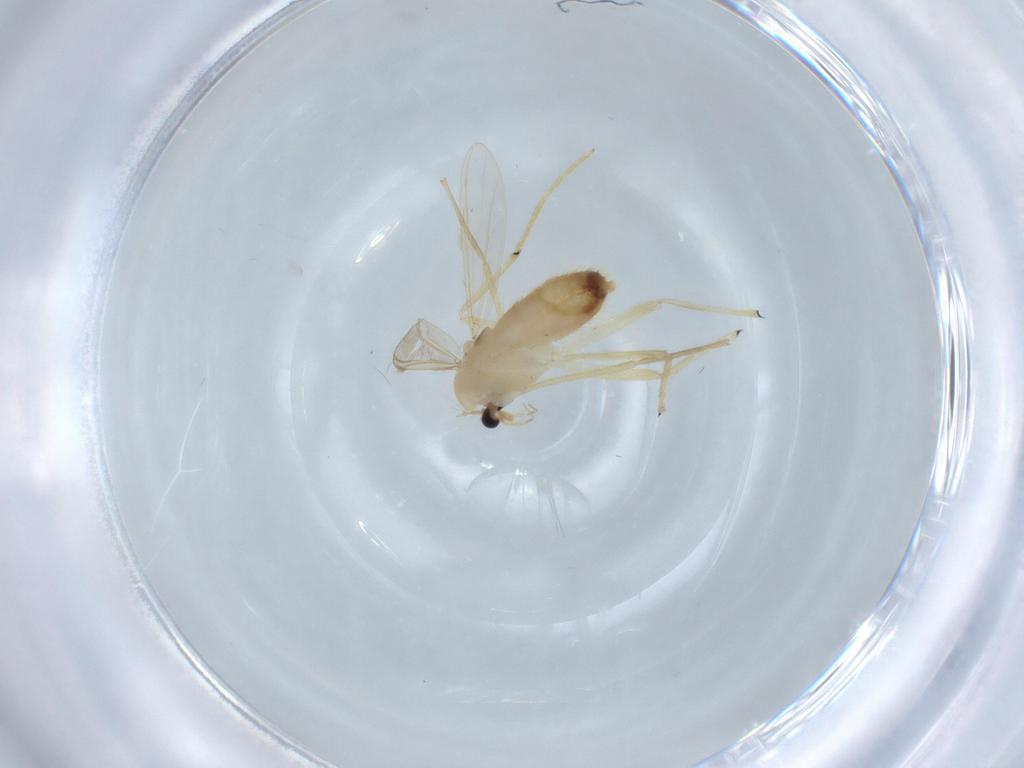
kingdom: Animalia
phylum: Arthropoda
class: Insecta
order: Diptera
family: Chironomidae
